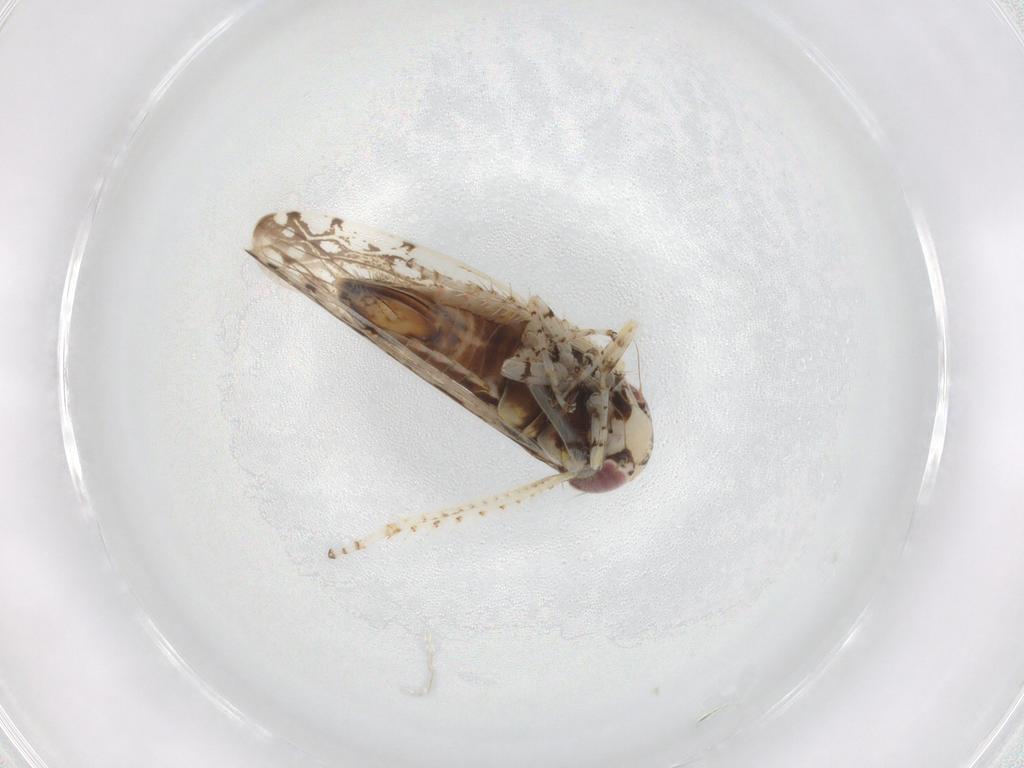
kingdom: Animalia
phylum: Arthropoda
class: Insecta
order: Hemiptera
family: Cicadellidae
